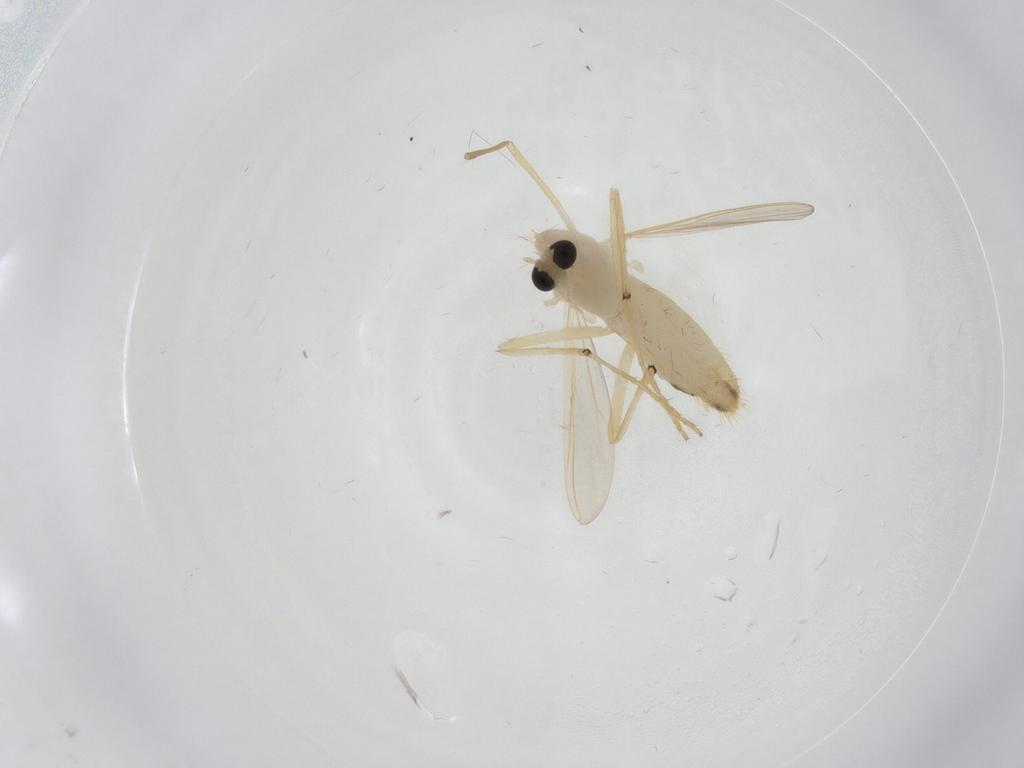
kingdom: Animalia
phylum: Arthropoda
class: Insecta
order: Diptera
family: Chironomidae
